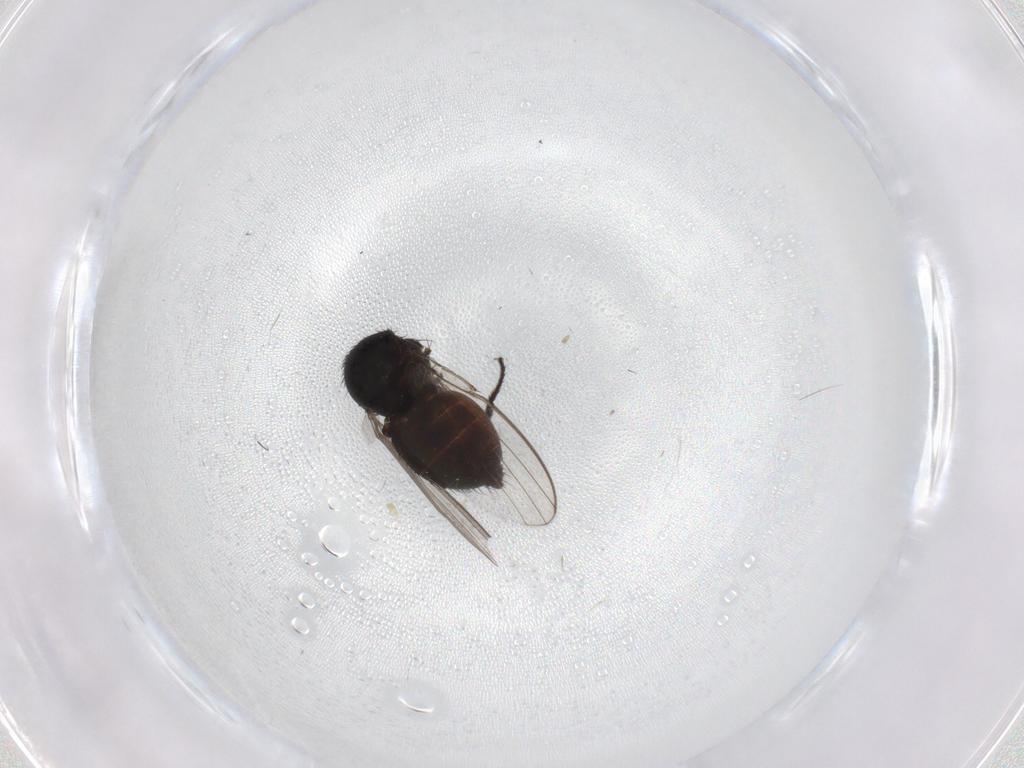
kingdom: Animalia
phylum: Arthropoda
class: Insecta
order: Diptera
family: Milichiidae
